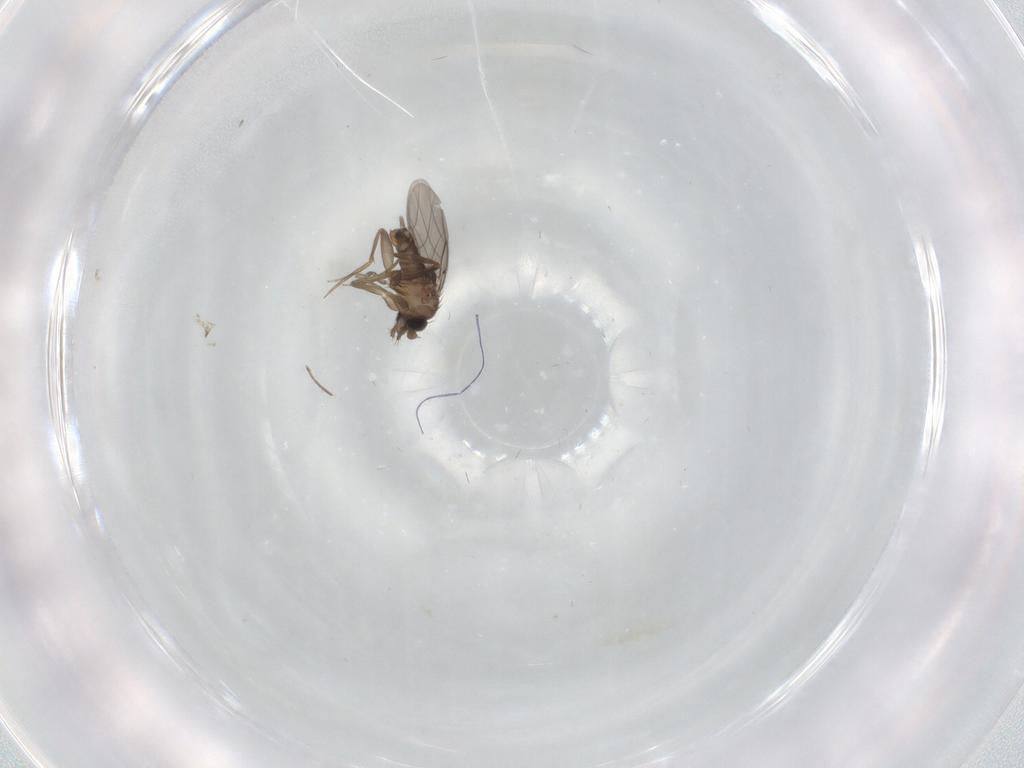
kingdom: Animalia
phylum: Arthropoda
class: Insecta
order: Diptera
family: Phoridae
